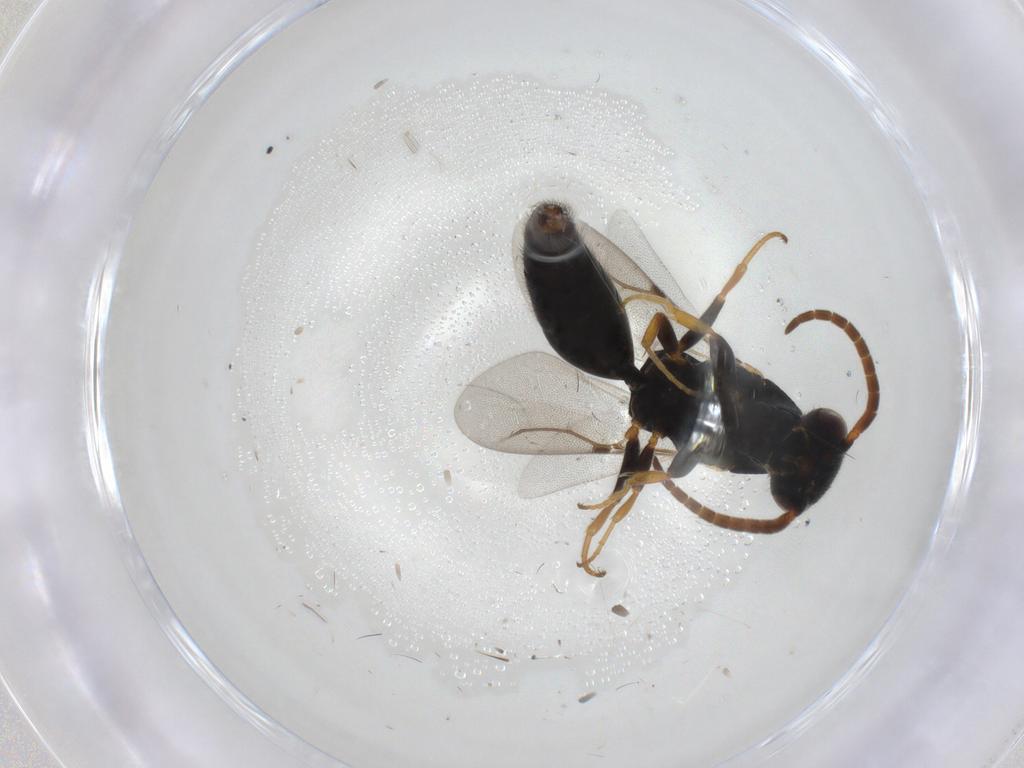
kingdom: Animalia
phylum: Arthropoda
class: Insecta
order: Hymenoptera
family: Bethylidae
